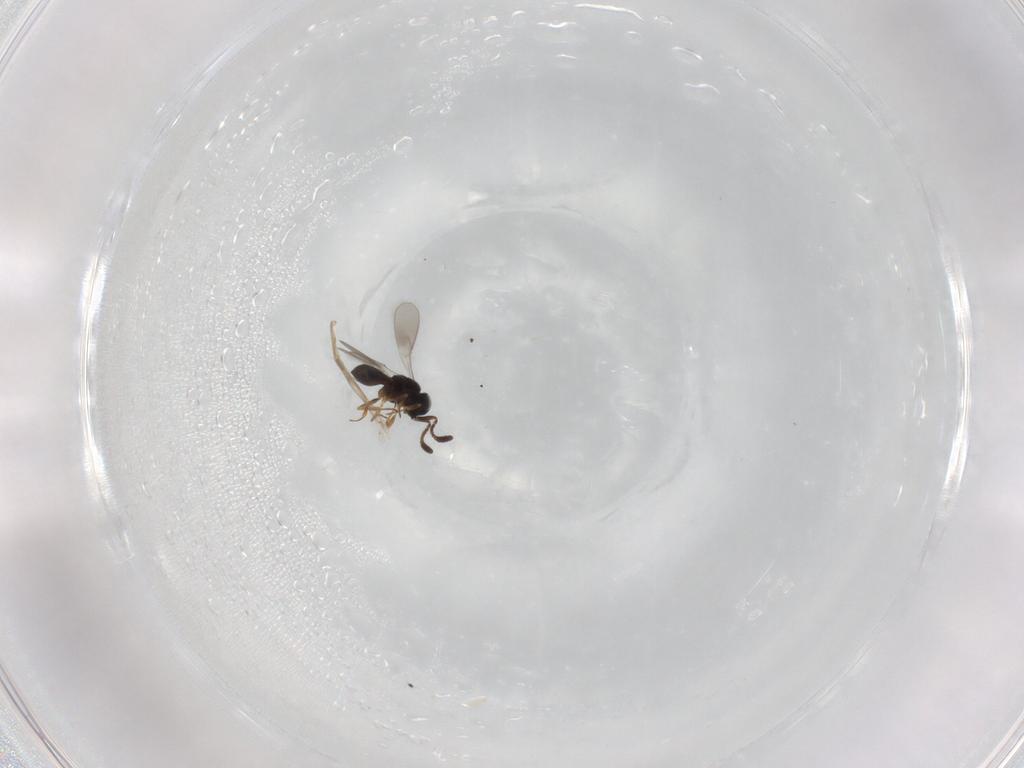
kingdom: Animalia
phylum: Arthropoda
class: Insecta
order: Hymenoptera
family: Scelionidae
